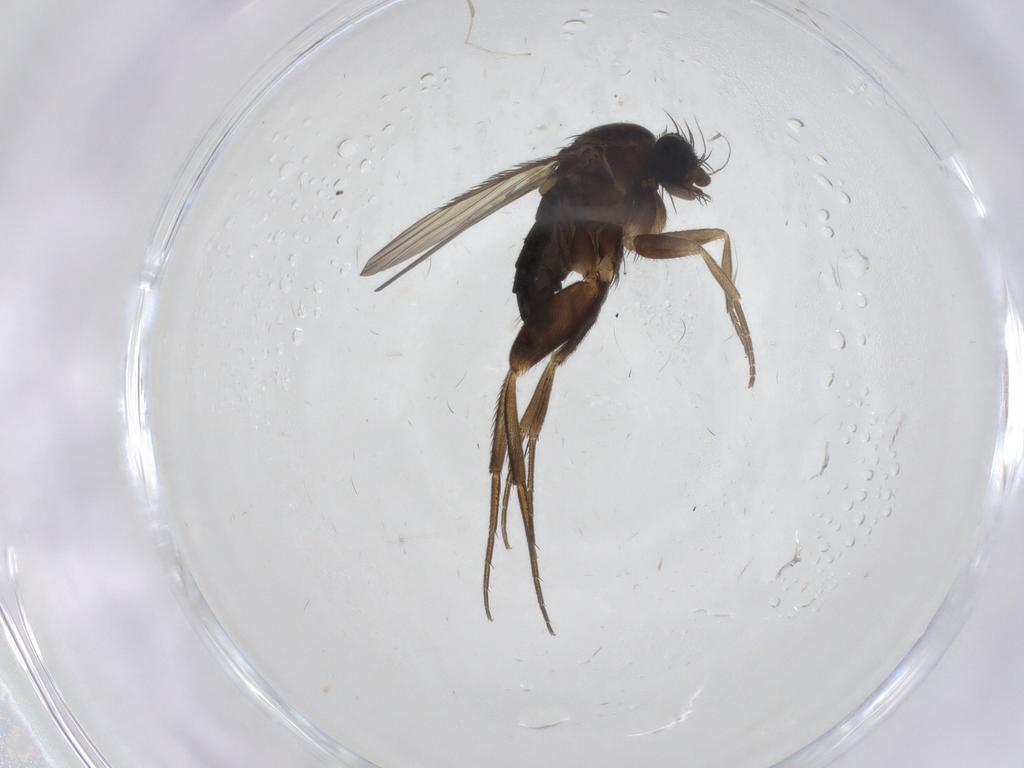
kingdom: Animalia
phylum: Arthropoda
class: Insecta
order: Diptera
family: Phoridae
